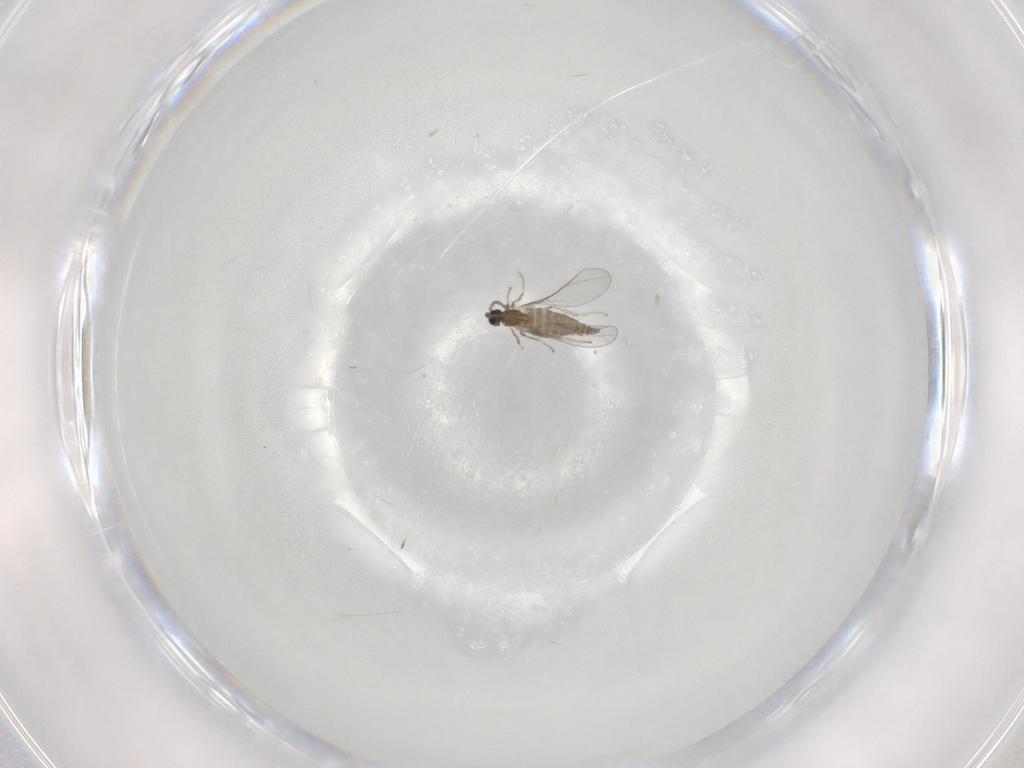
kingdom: Animalia
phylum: Arthropoda
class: Insecta
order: Diptera
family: Cecidomyiidae
